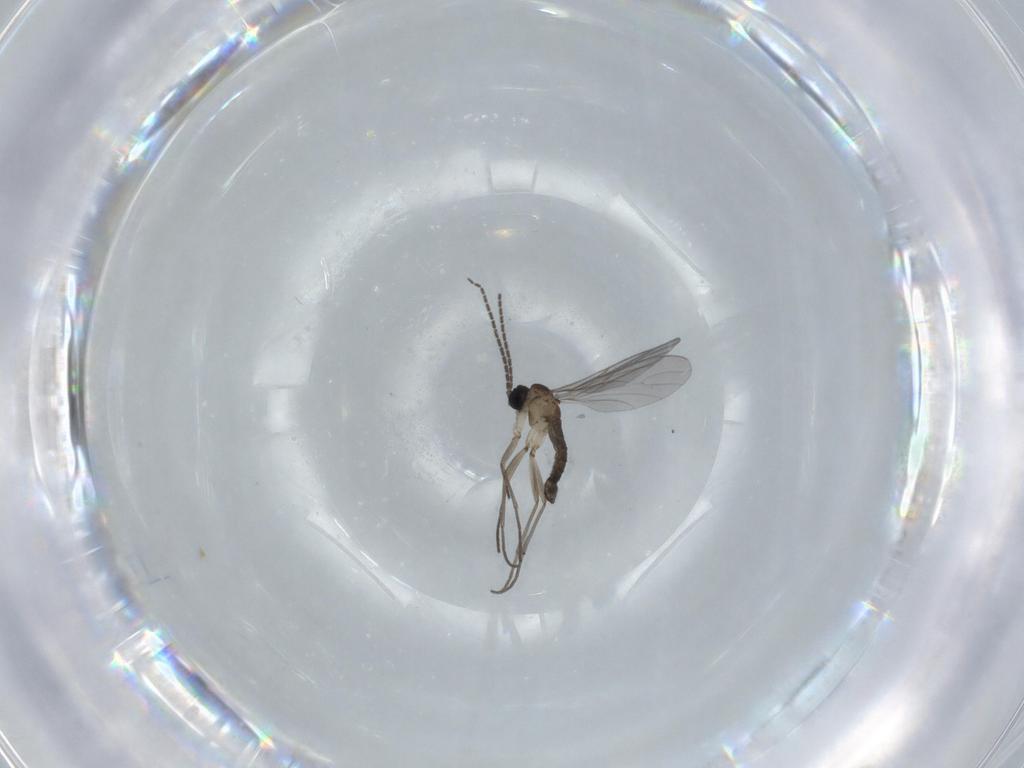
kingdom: Animalia
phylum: Arthropoda
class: Insecta
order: Diptera
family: Sciaridae
